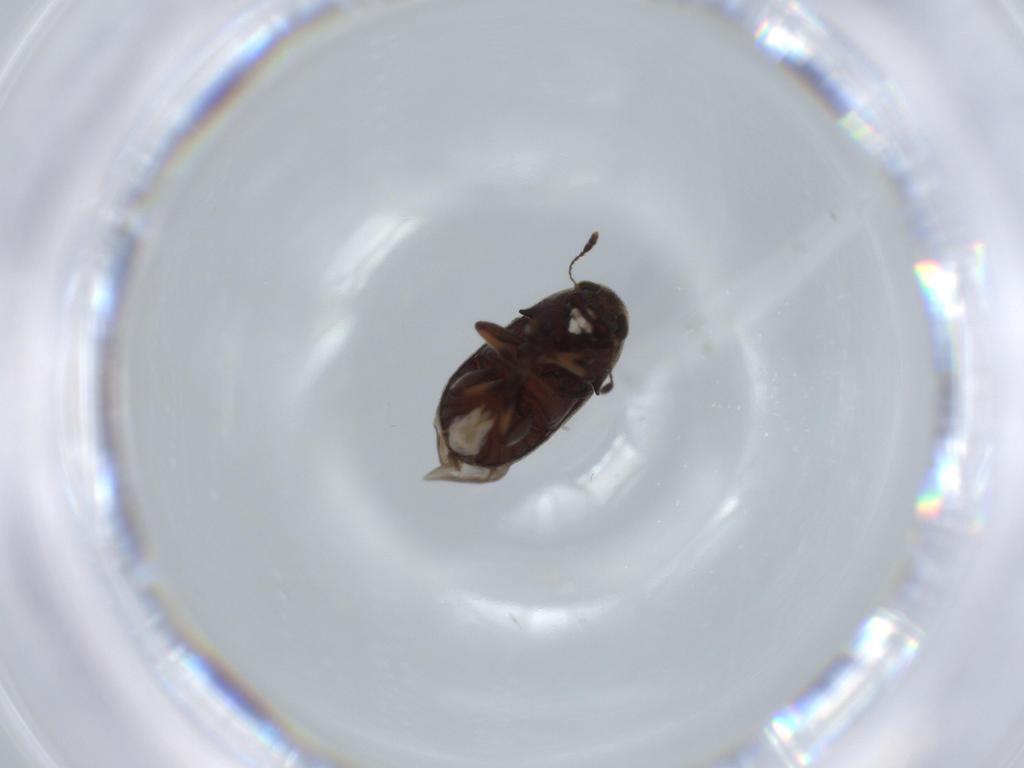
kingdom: Animalia
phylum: Arthropoda
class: Insecta
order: Coleoptera
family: Anthribidae
